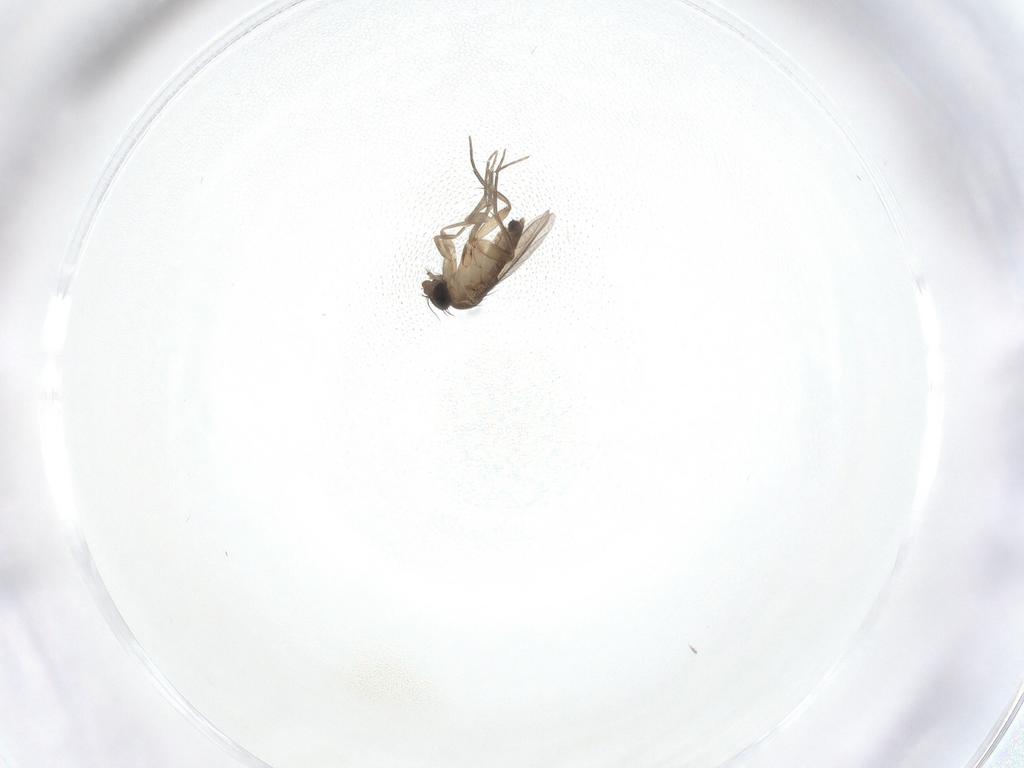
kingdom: Animalia
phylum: Arthropoda
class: Insecta
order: Diptera
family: Phoridae
